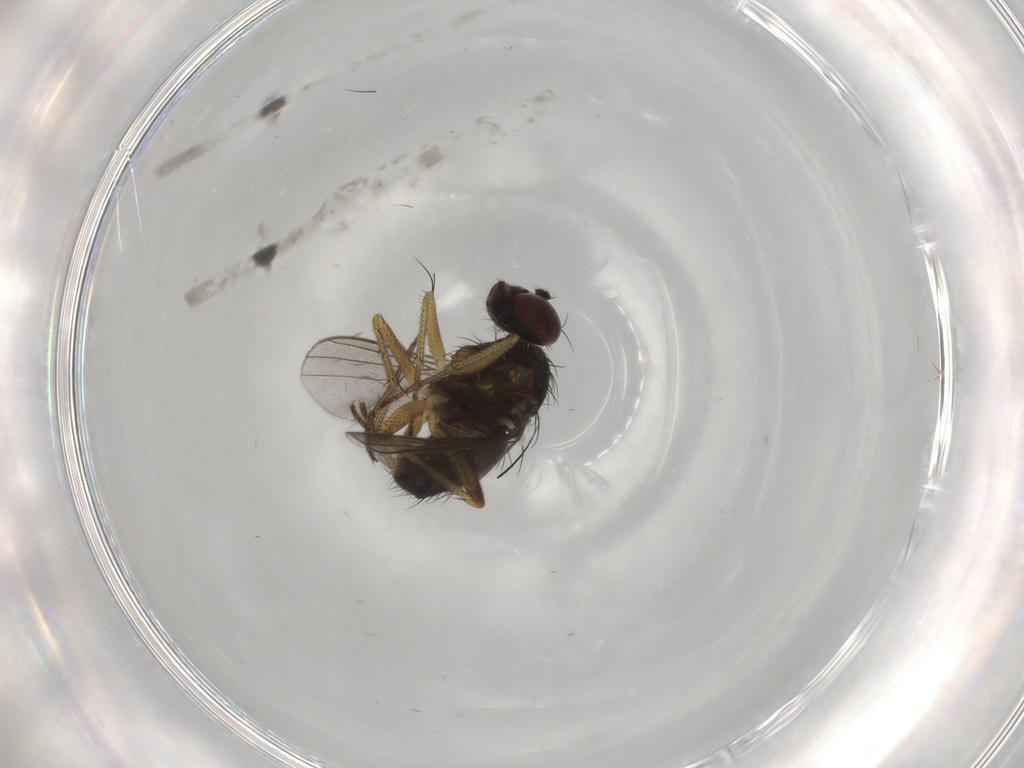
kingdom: Animalia
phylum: Arthropoda
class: Insecta
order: Diptera
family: Dolichopodidae
